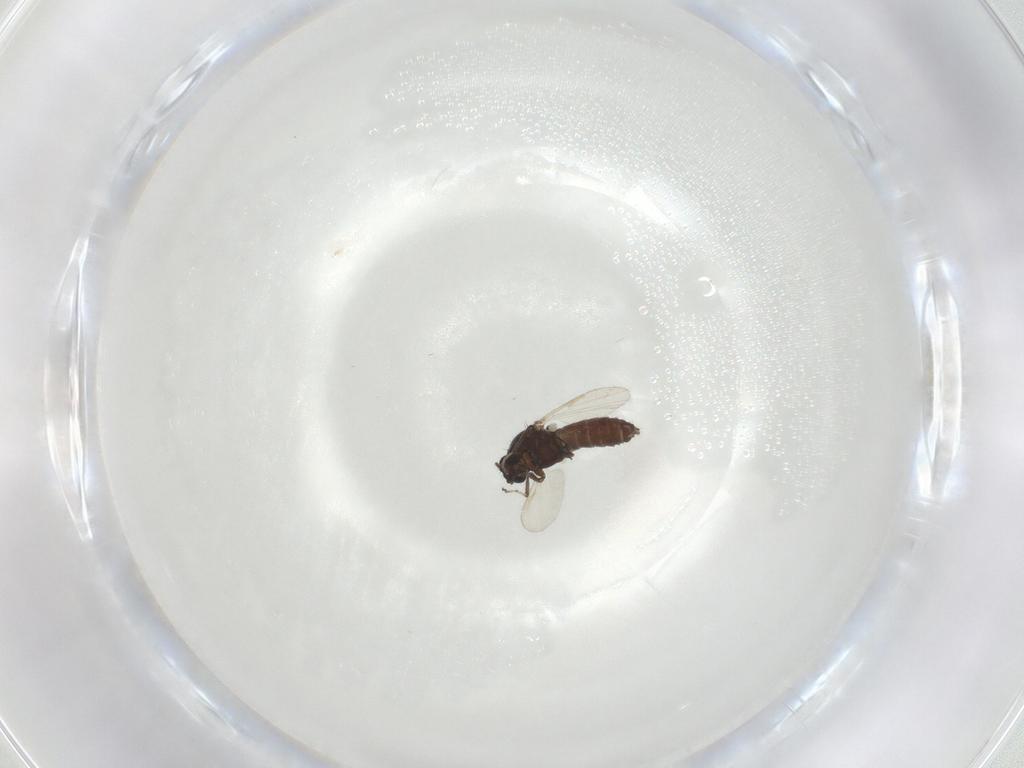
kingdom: Animalia
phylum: Arthropoda
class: Insecta
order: Diptera
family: Ceratopogonidae
